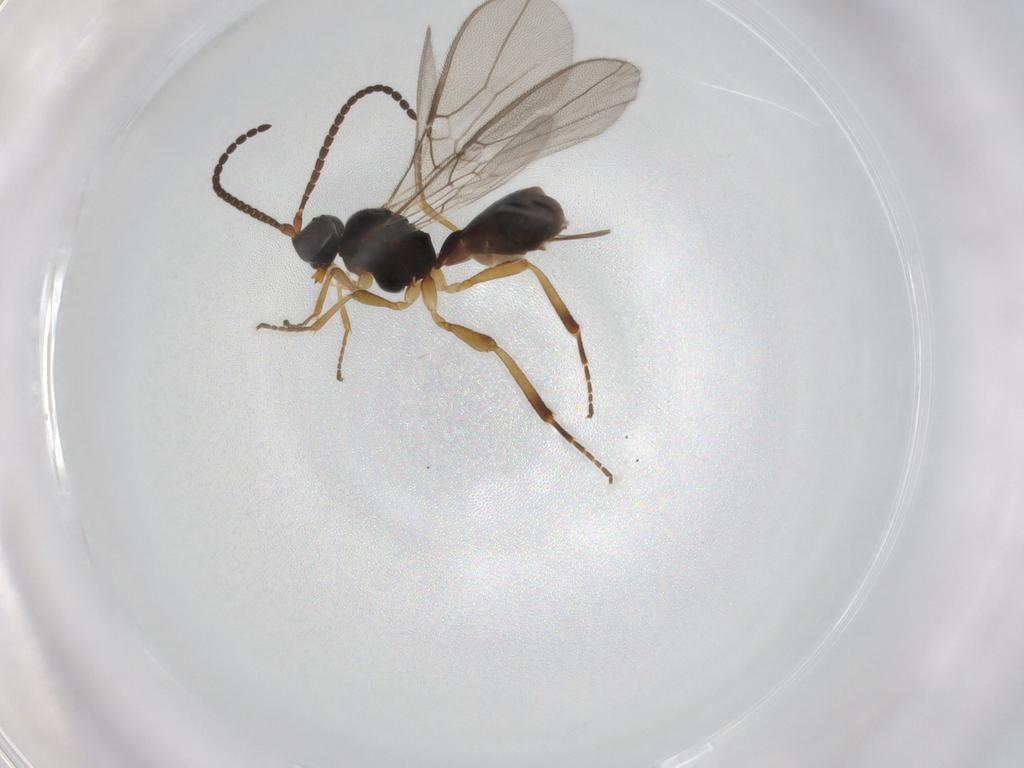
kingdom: Animalia
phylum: Arthropoda
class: Insecta
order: Hymenoptera
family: Braconidae
